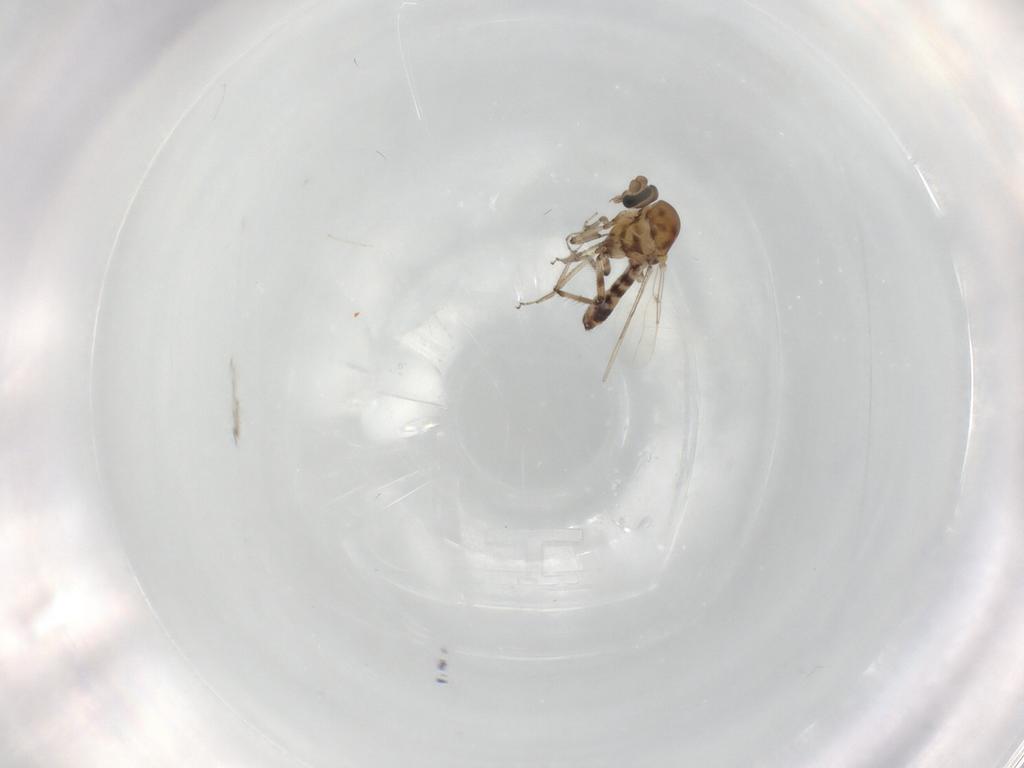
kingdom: Animalia
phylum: Arthropoda
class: Insecta
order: Diptera
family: Ceratopogonidae
